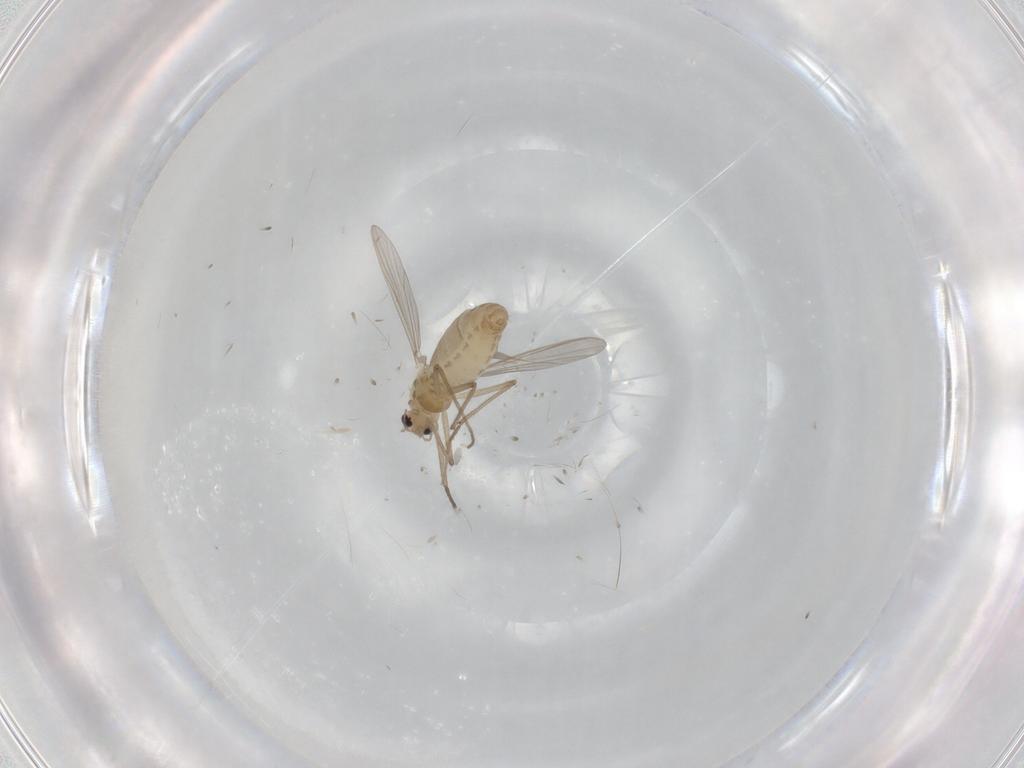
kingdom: Animalia
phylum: Arthropoda
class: Insecta
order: Diptera
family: Chironomidae
